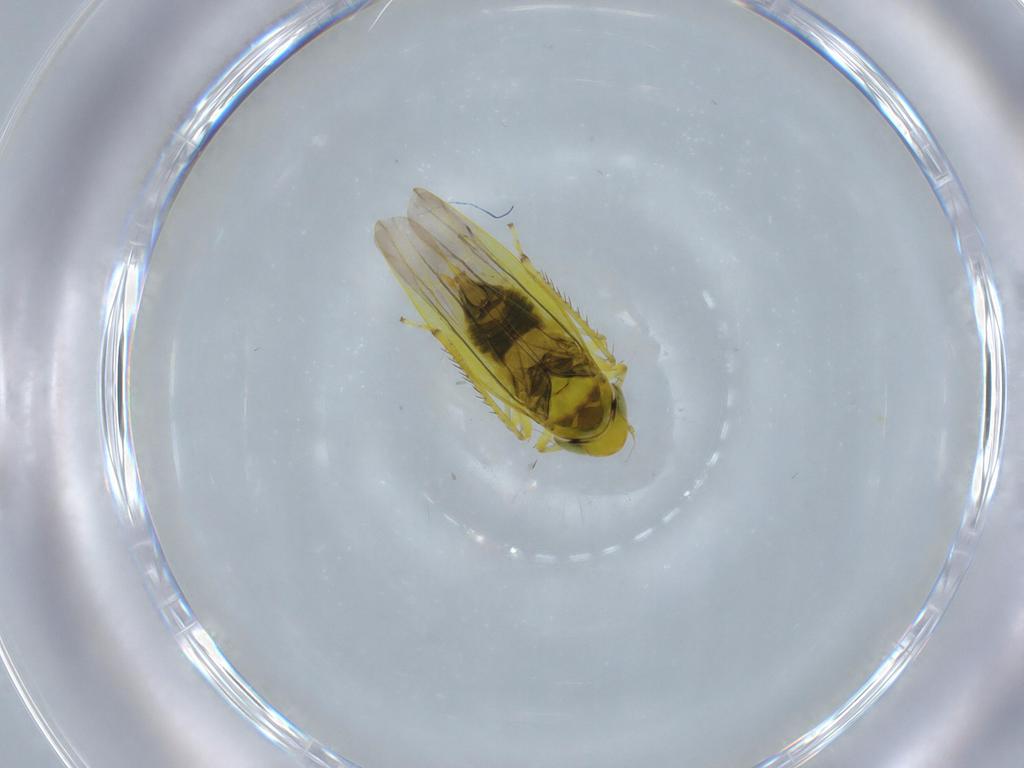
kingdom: Animalia
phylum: Arthropoda
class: Insecta
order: Hemiptera
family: Cicadellidae
